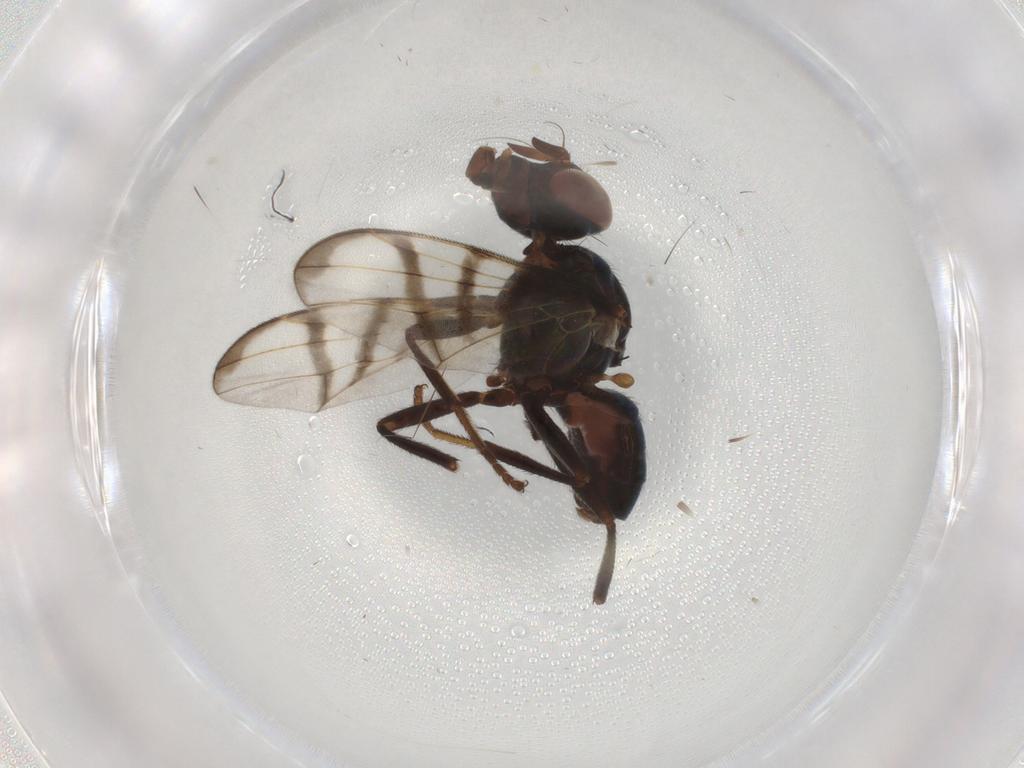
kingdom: Animalia
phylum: Arthropoda
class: Insecta
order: Diptera
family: Platystomatidae
